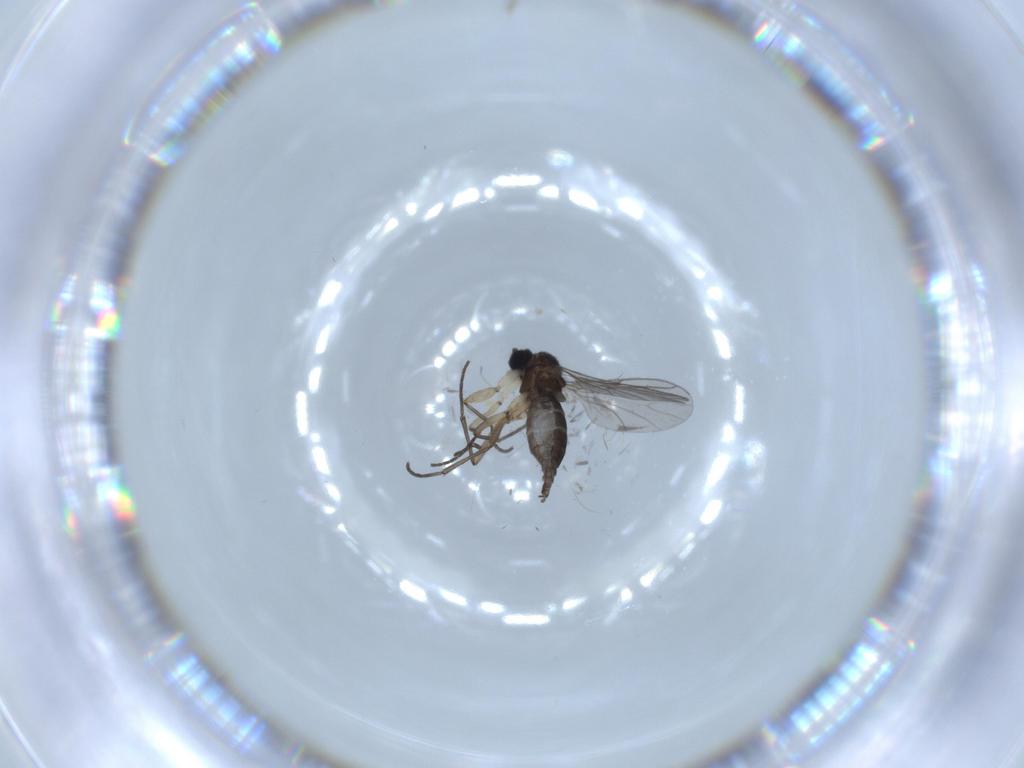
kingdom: Animalia
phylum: Arthropoda
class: Insecta
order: Diptera
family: Sciaridae
